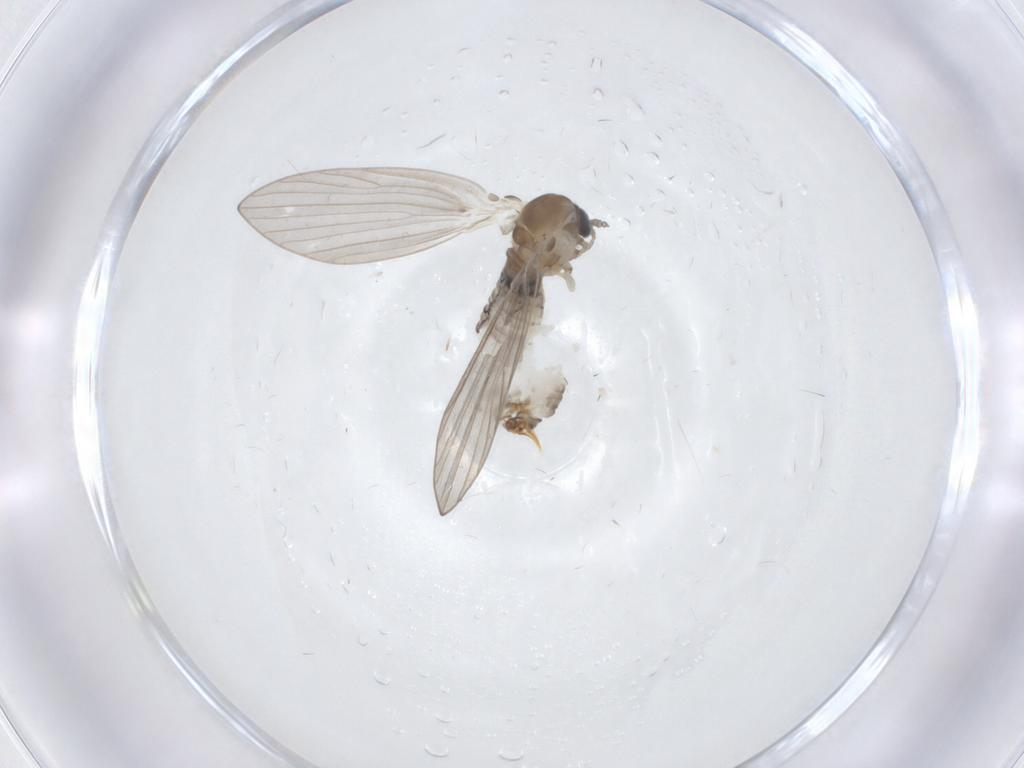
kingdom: Animalia
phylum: Arthropoda
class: Insecta
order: Diptera
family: Psychodidae
